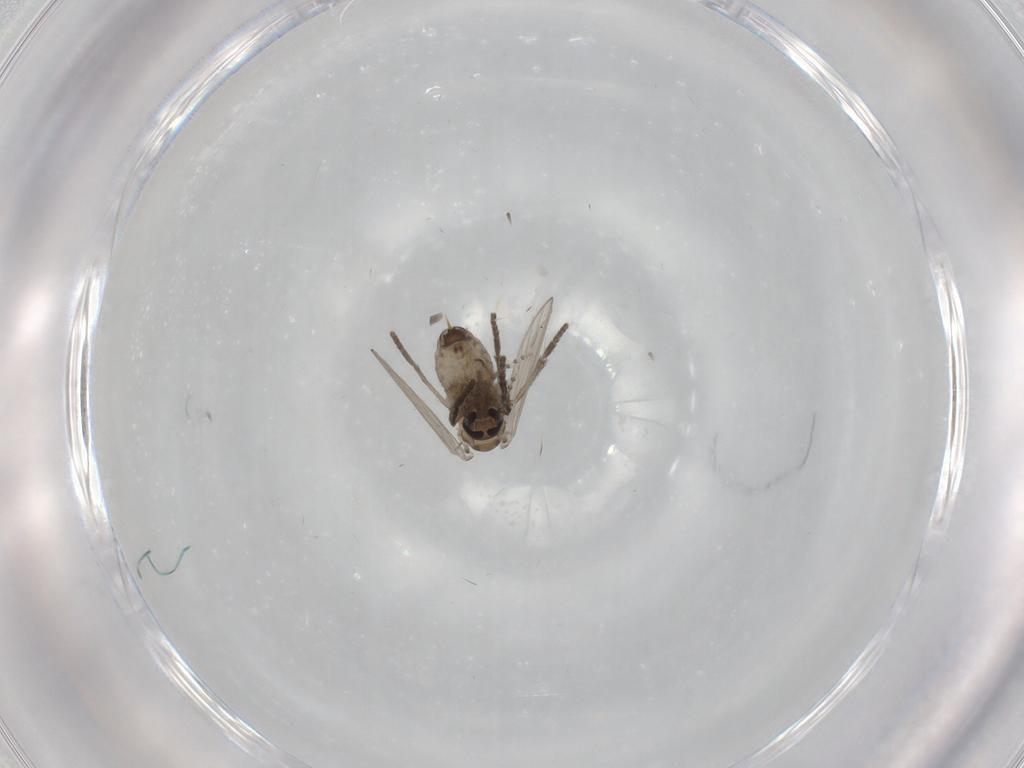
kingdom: Animalia
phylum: Arthropoda
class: Insecta
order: Diptera
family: Psychodidae
